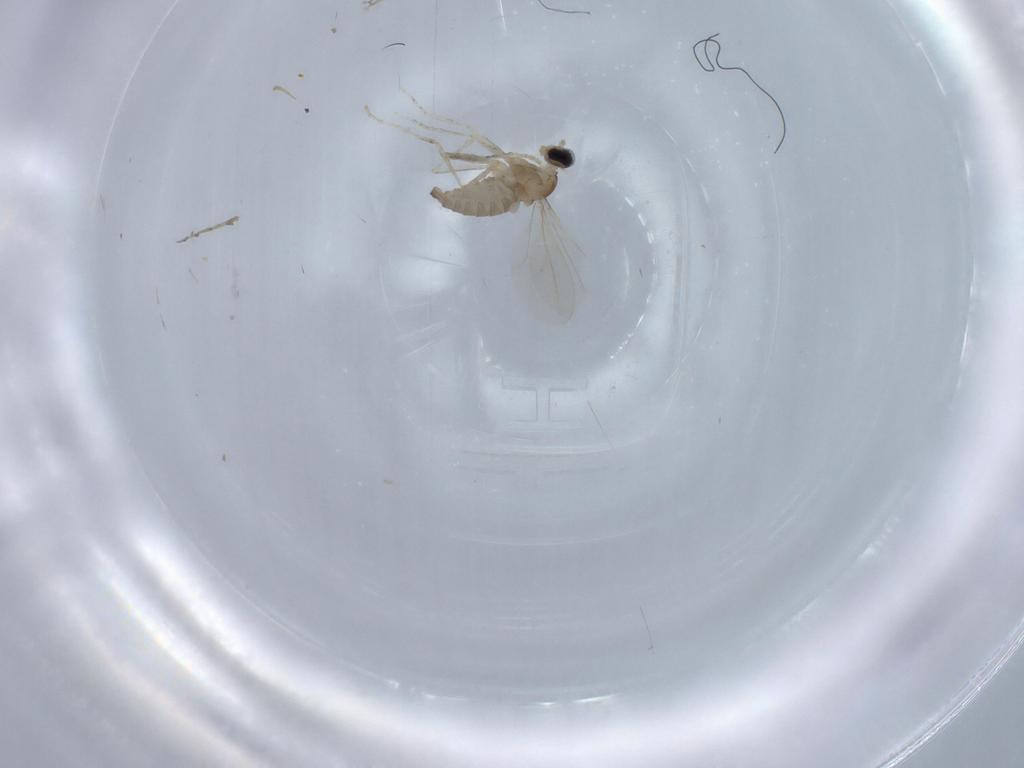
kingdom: Animalia
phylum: Arthropoda
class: Insecta
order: Diptera
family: Cecidomyiidae
